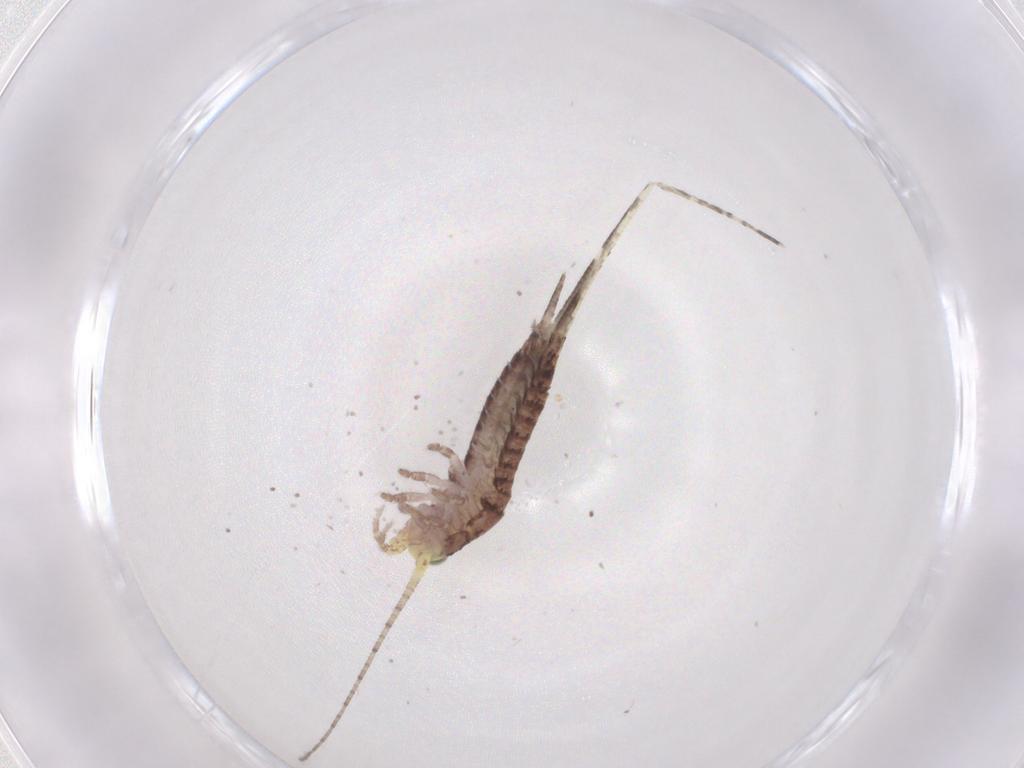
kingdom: Animalia
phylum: Arthropoda
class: Insecta
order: Archaeognatha
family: Machilidae
